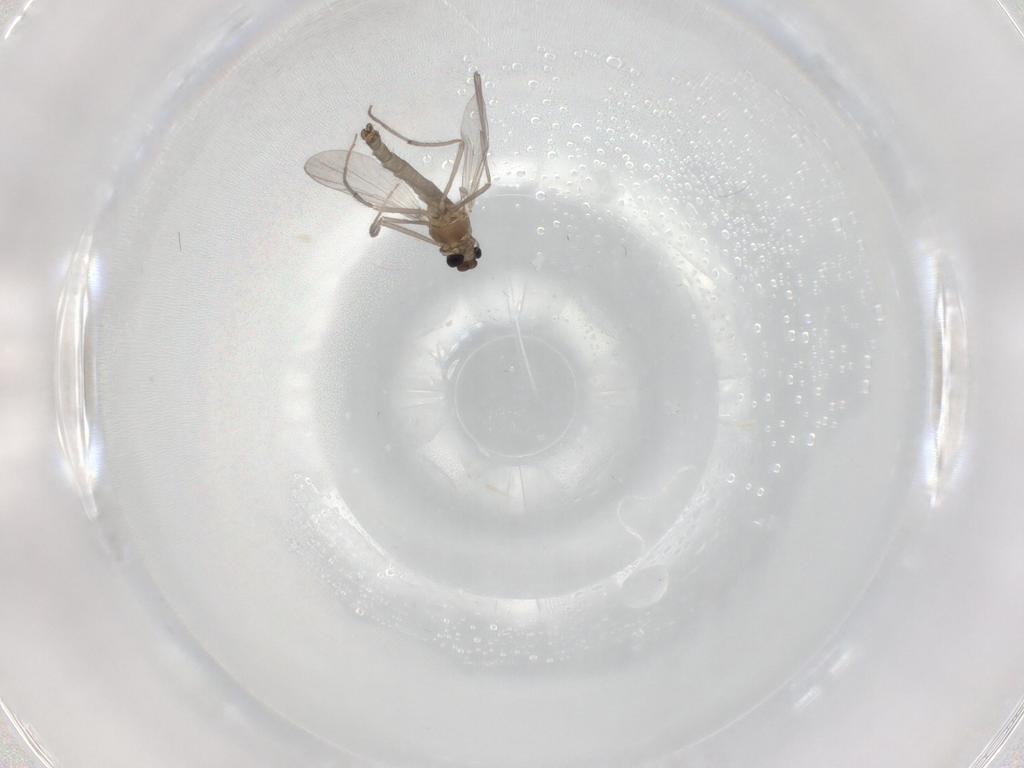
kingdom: Animalia
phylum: Arthropoda
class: Insecta
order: Diptera
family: Chironomidae
